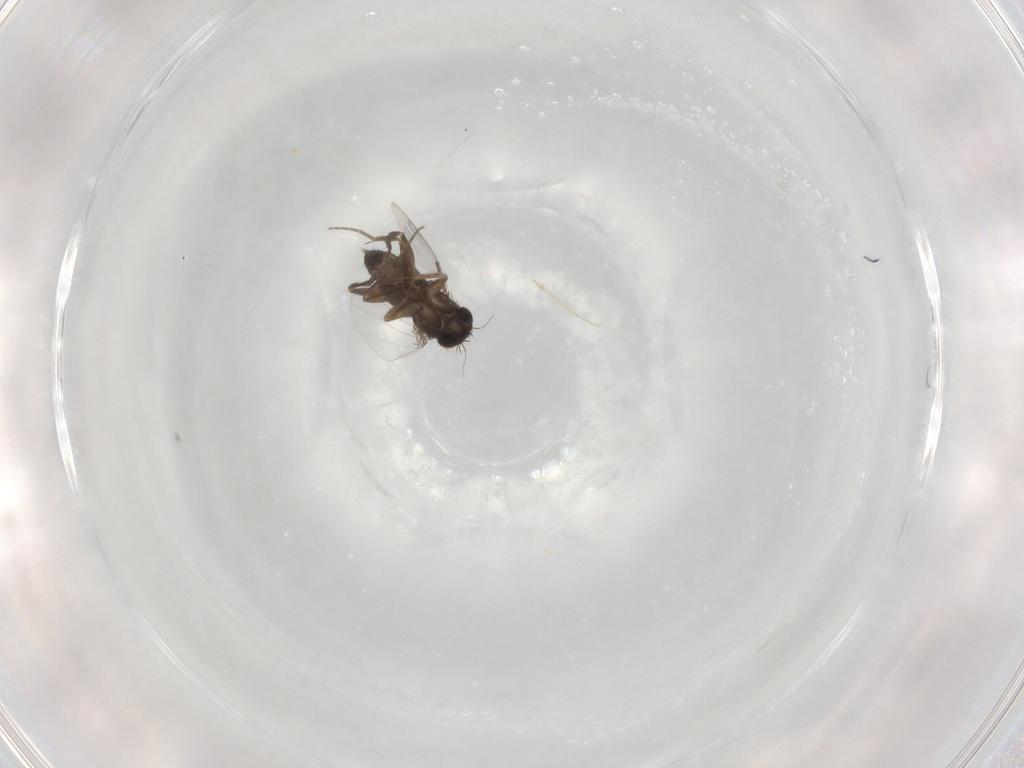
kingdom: Animalia
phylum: Arthropoda
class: Insecta
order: Diptera
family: Phoridae
